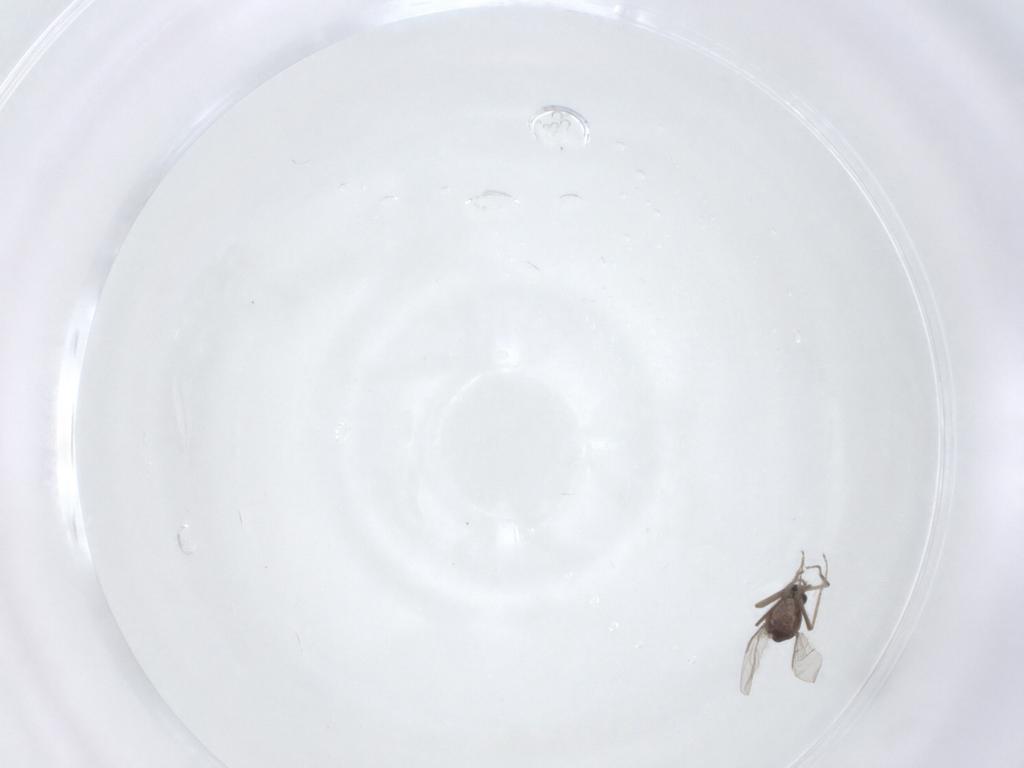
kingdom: Animalia
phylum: Arthropoda
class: Insecta
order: Diptera
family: Ceratopogonidae
